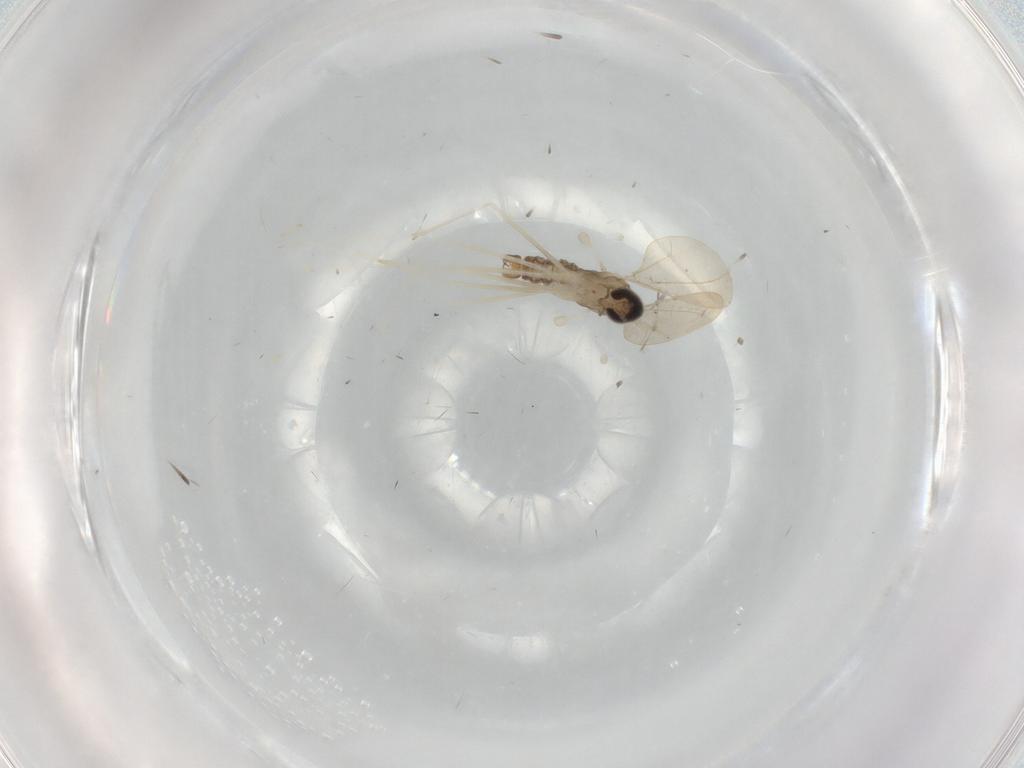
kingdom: Animalia
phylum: Arthropoda
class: Insecta
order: Diptera
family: Cecidomyiidae
